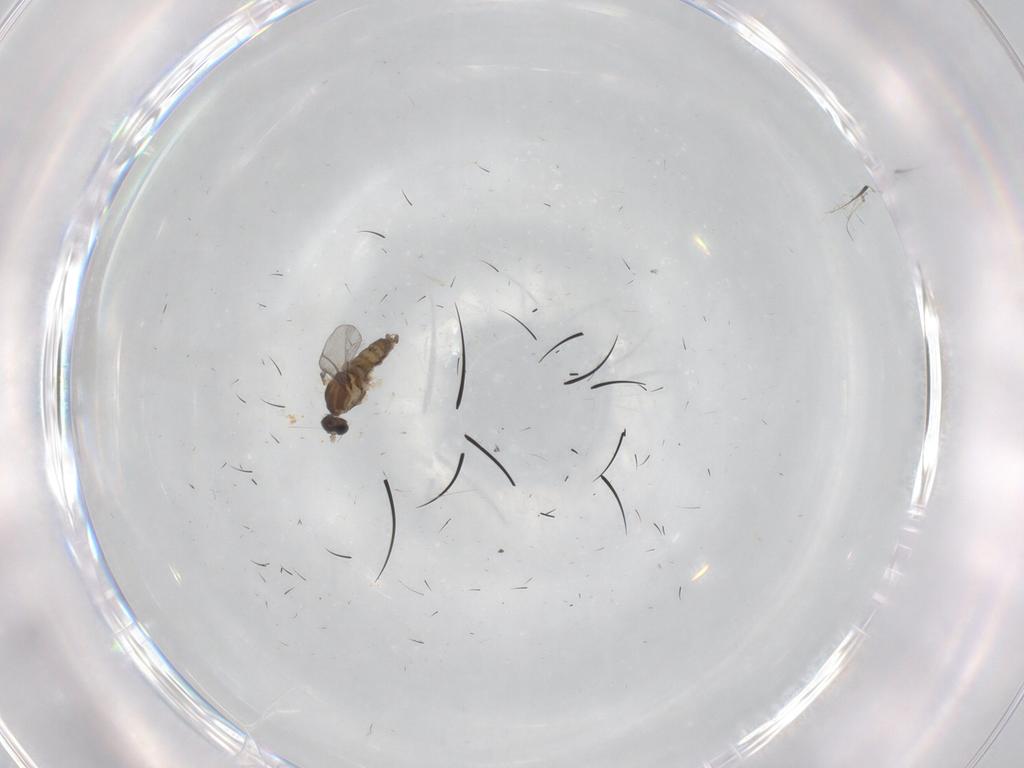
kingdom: Animalia
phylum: Arthropoda
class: Insecta
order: Diptera
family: Cecidomyiidae
